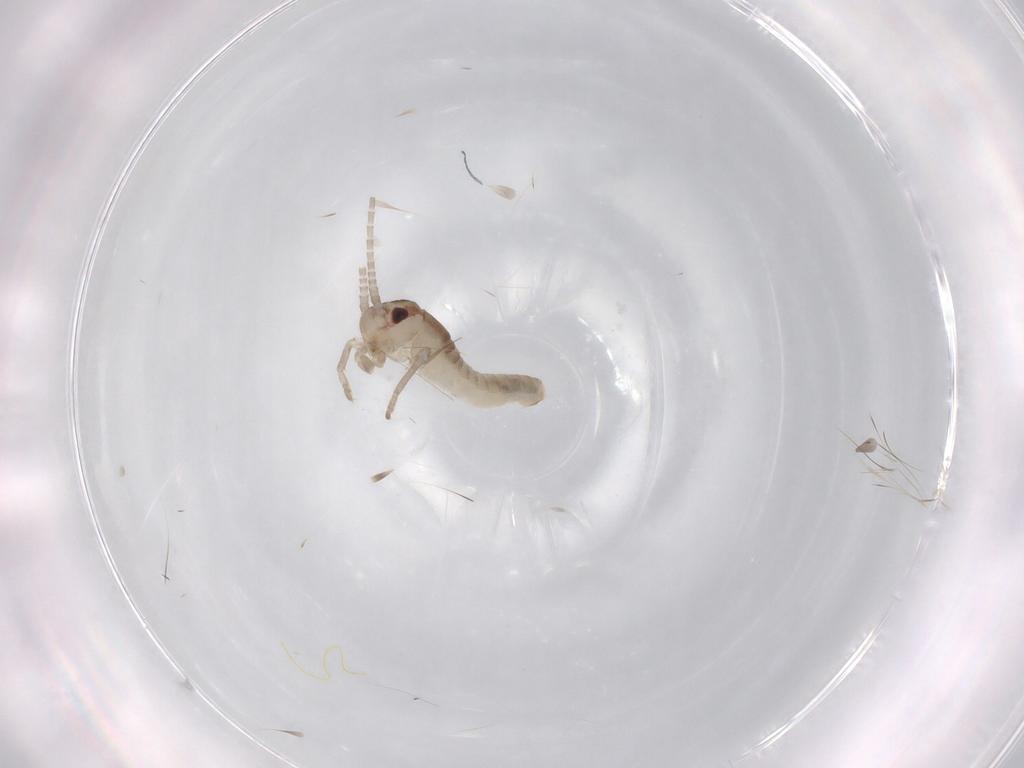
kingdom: Animalia
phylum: Arthropoda
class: Insecta
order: Orthoptera
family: Gryllidae
